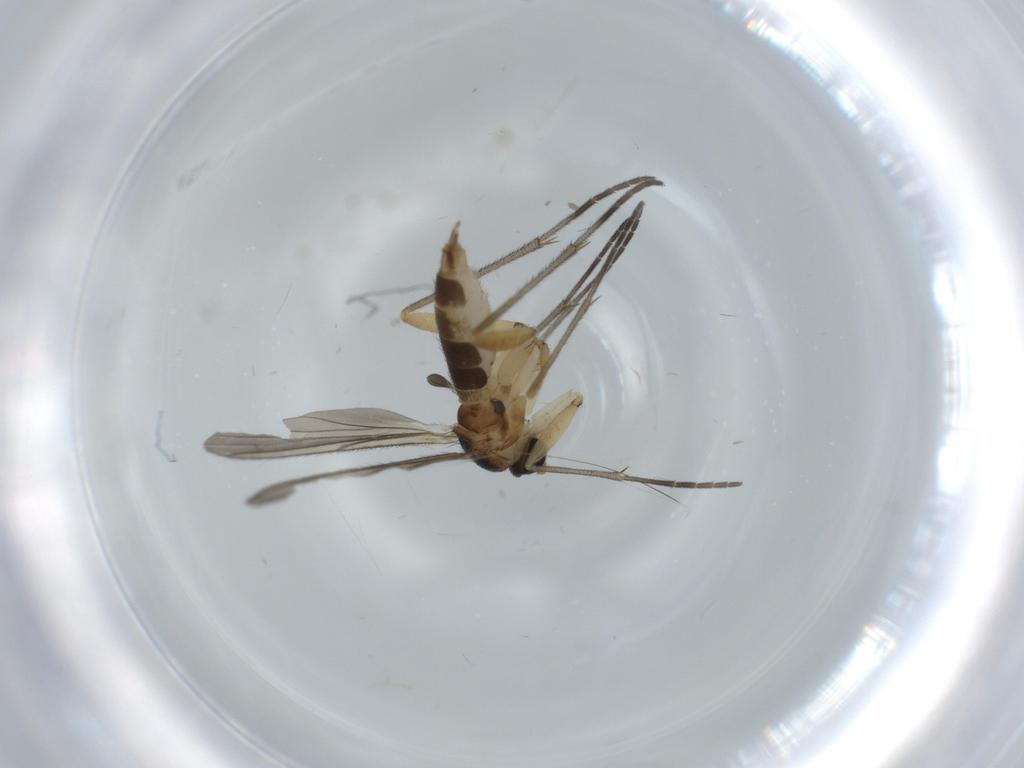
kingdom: Animalia
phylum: Arthropoda
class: Insecta
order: Diptera
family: Sciaridae
